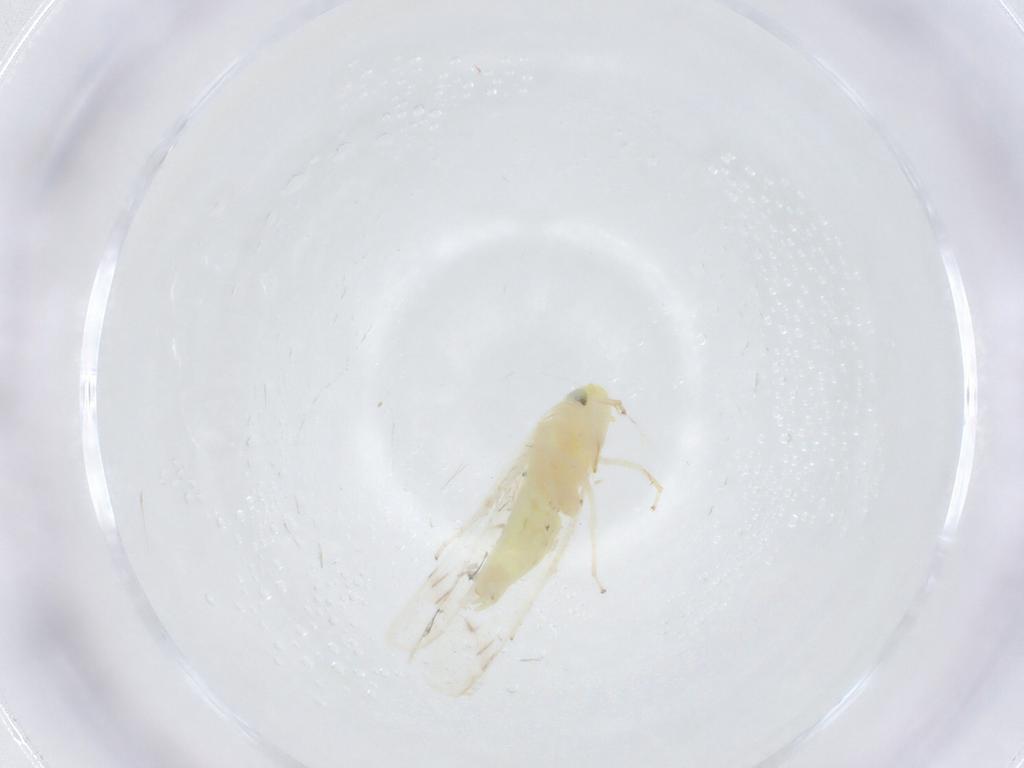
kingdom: Animalia
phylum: Arthropoda
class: Insecta
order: Hemiptera
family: Cicadellidae
